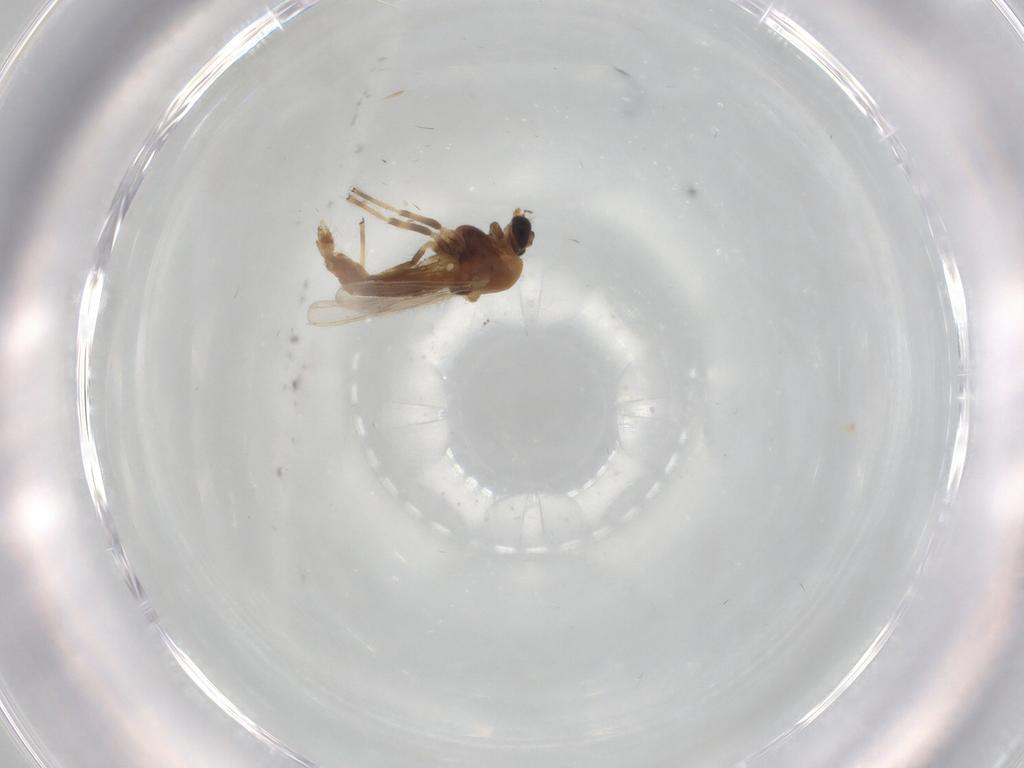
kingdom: Animalia
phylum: Arthropoda
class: Insecta
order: Diptera
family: Chironomidae
